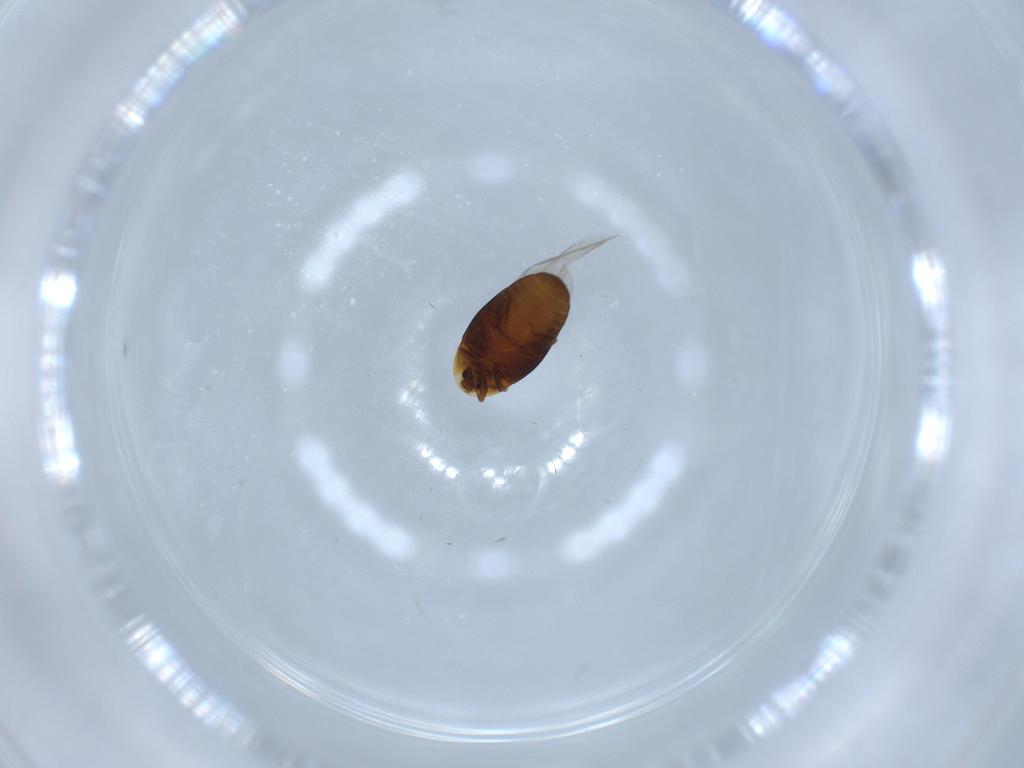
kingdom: Animalia
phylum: Arthropoda
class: Insecta
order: Coleoptera
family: Corylophidae
